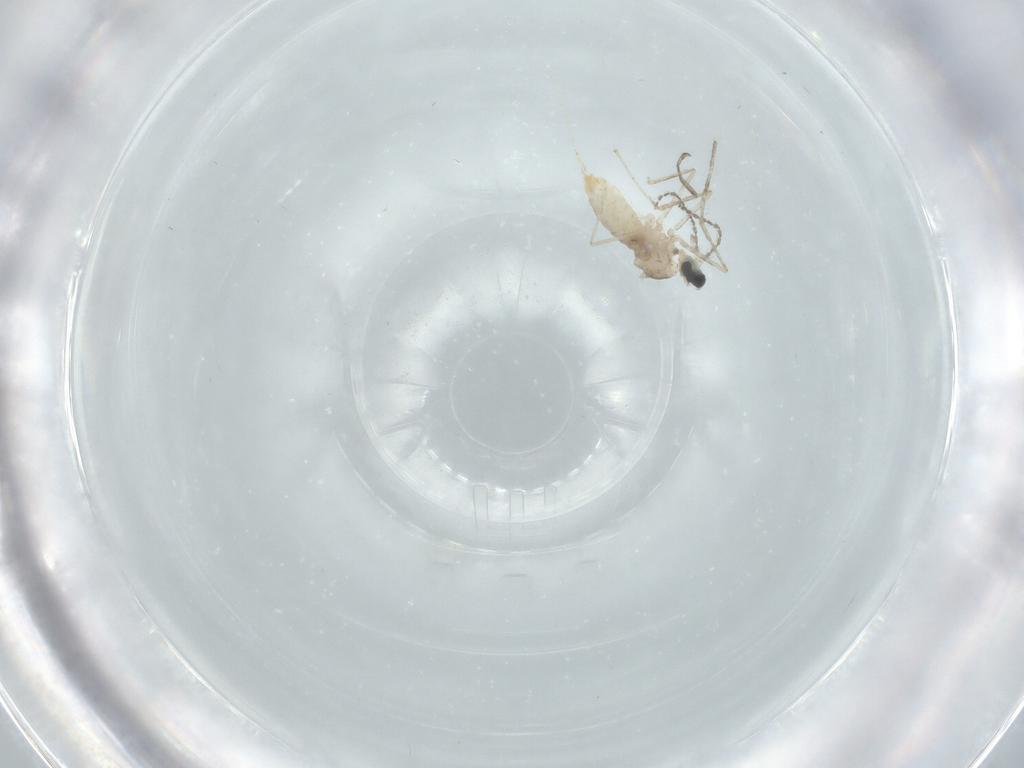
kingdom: Animalia
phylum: Arthropoda
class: Insecta
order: Diptera
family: Cecidomyiidae
